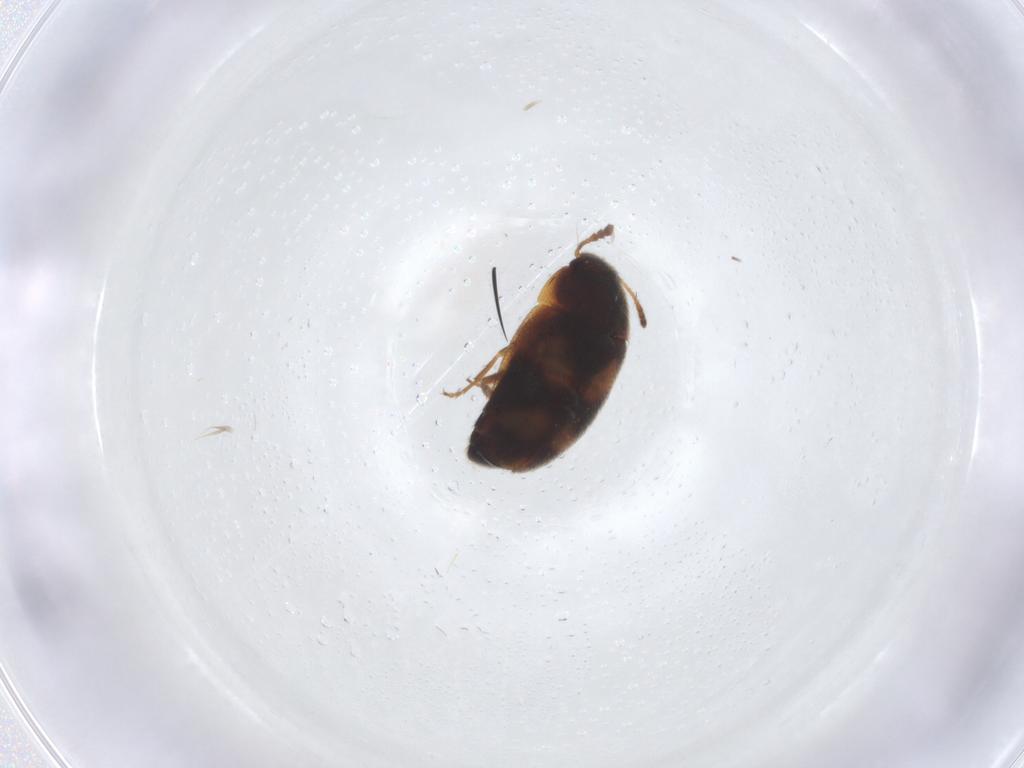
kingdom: Animalia
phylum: Arthropoda
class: Insecta
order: Coleoptera
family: Mycetophagidae
